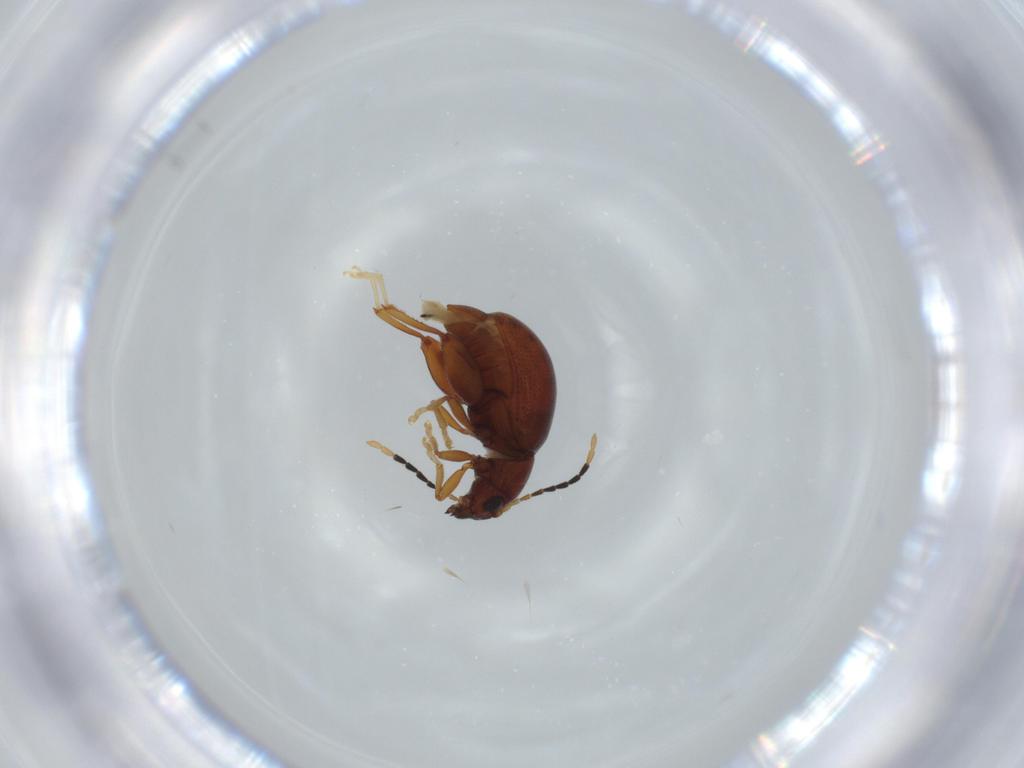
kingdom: Animalia
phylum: Arthropoda
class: Insecta
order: Coleoptera
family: Chrysomelidae
